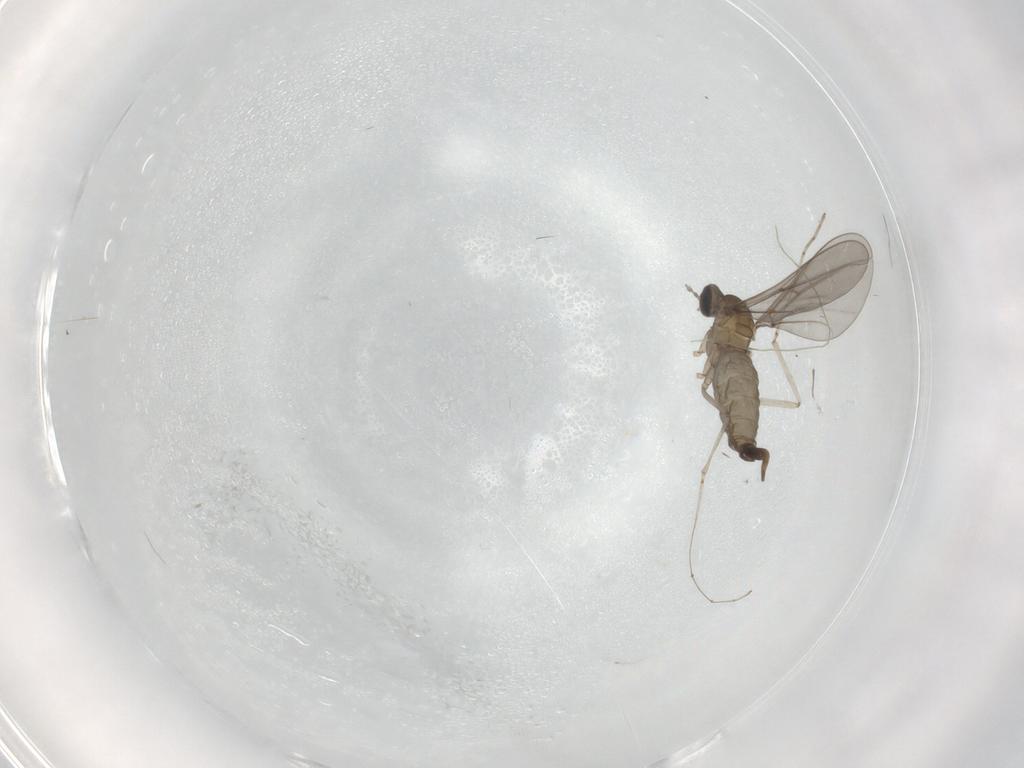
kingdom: Animalia
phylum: Arthropoda
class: Insecta
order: Diptera
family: Cecidomyiidae
